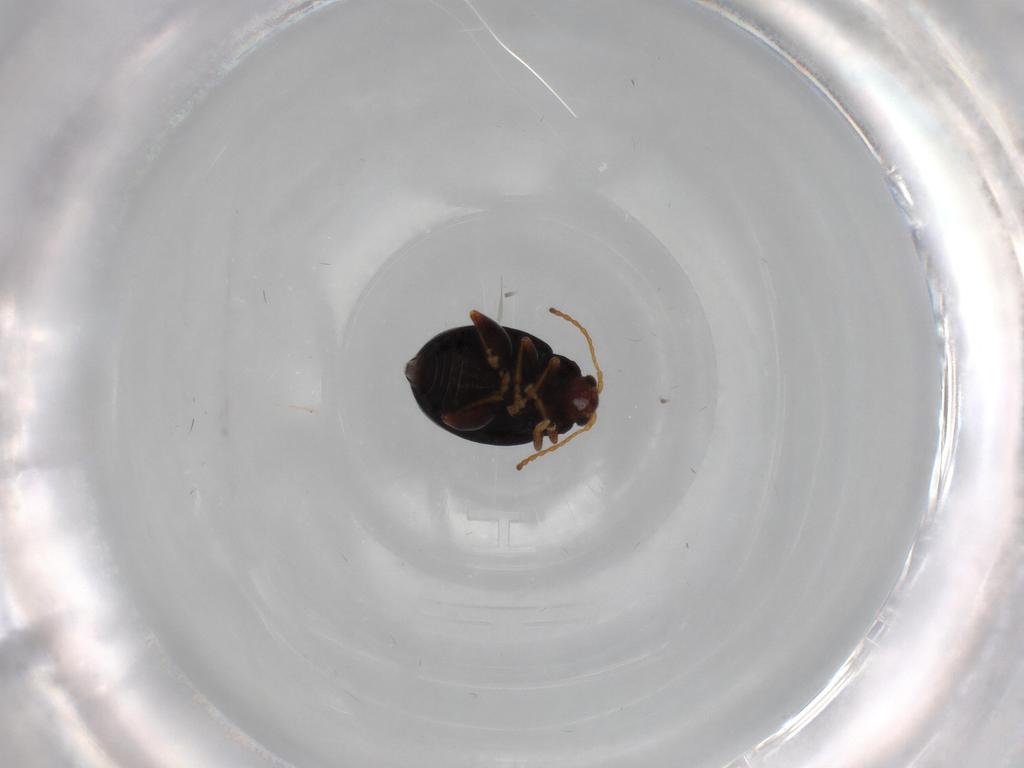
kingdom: Animalia
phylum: Arthropoda
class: Insecta
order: Coleoptera
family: Chrysomelidae
